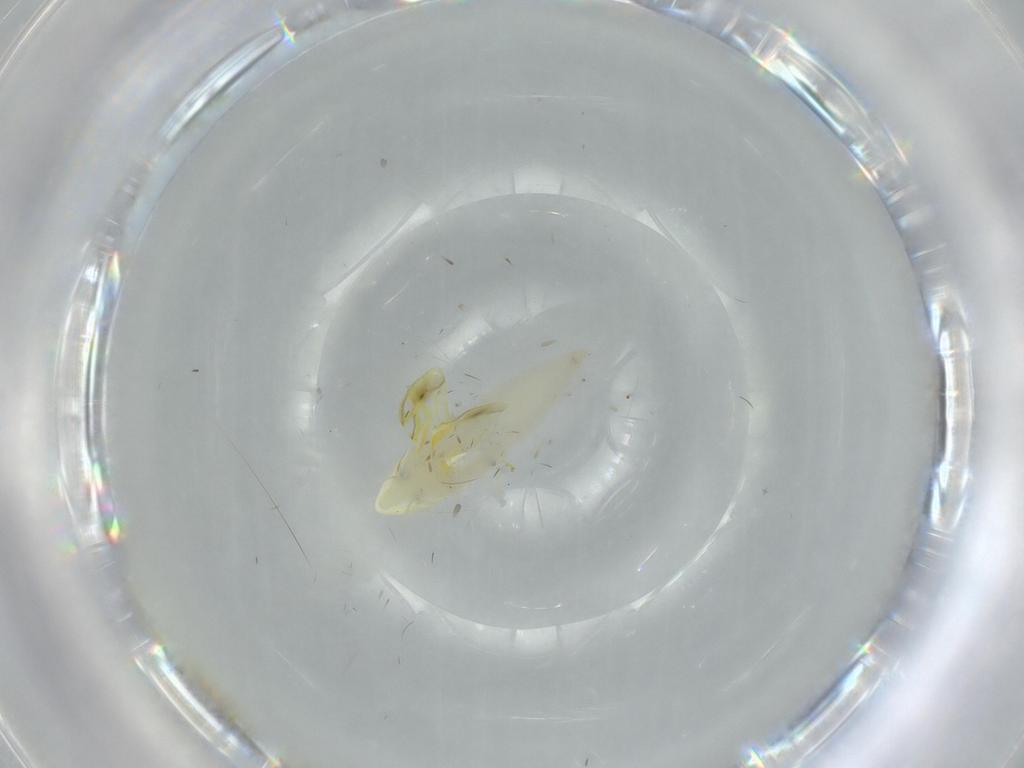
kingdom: Animalia
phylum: Arthropoda
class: Insecta
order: Hemiptera
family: Cicadellidae
